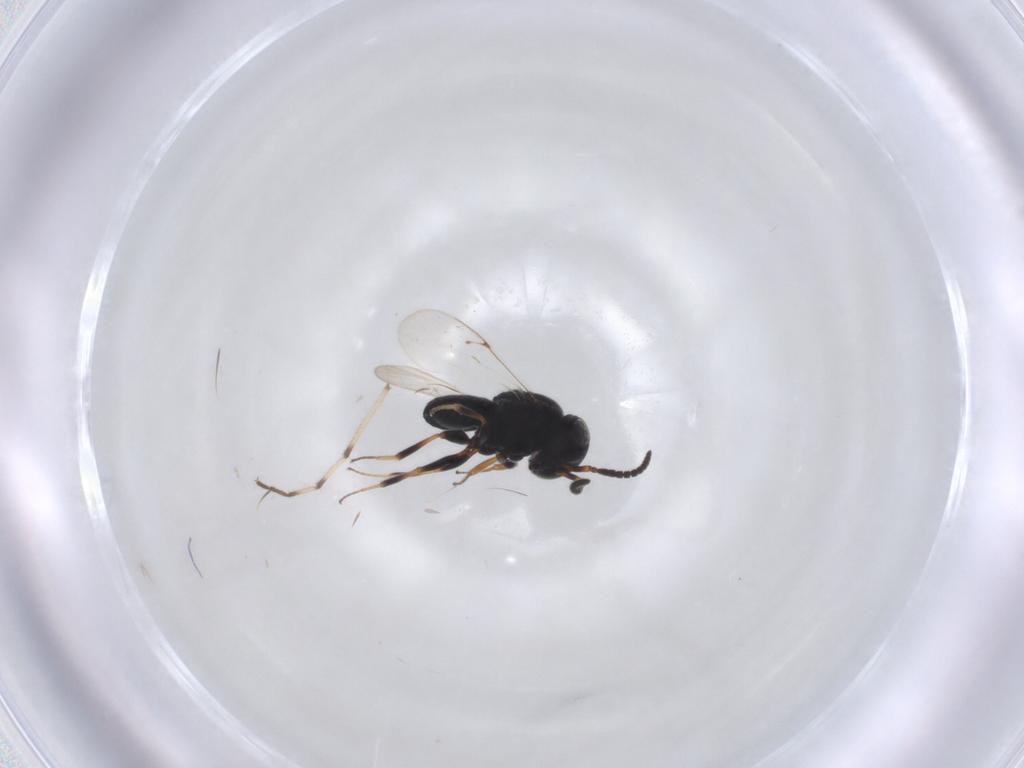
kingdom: Animalia
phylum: Arthropoda
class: Insecta
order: Hymenoptera
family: Scelionidae
